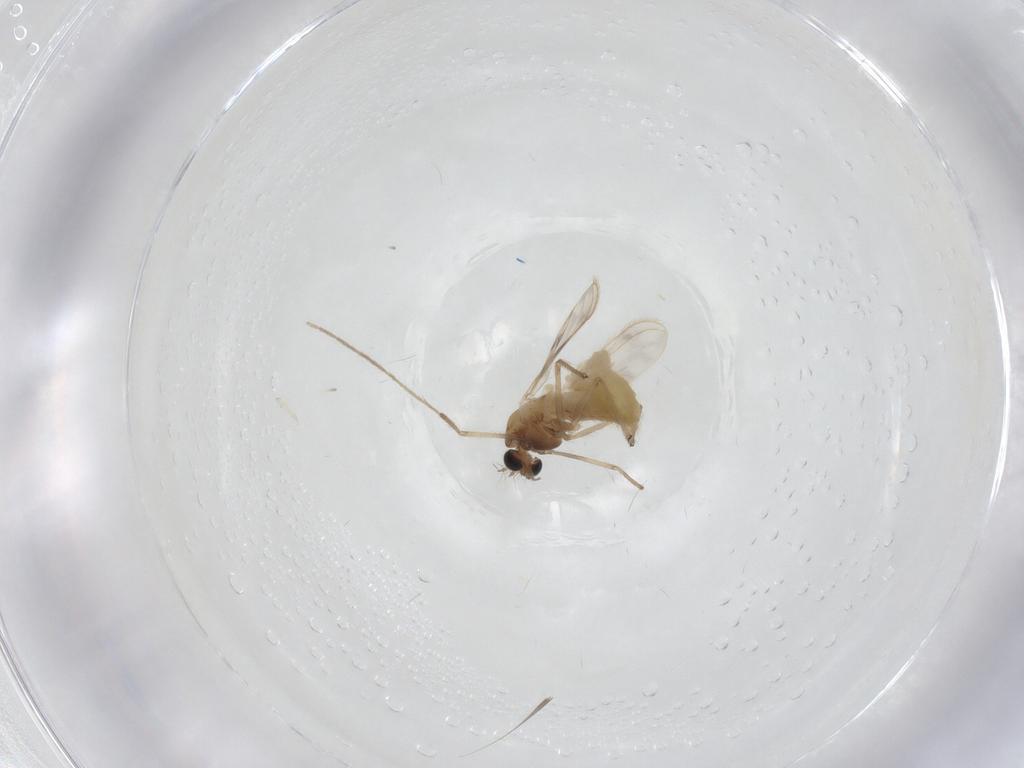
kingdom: Animalia
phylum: Arthropoda
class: Insecta
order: Diptera
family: Chironomidae
